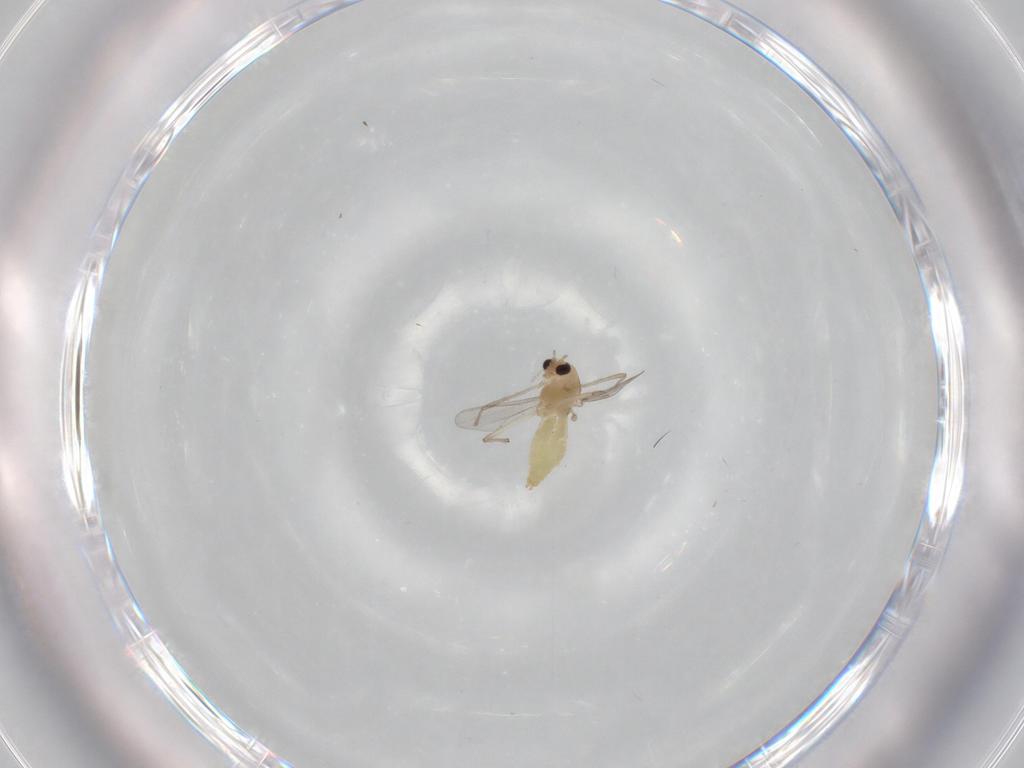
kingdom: Animalia
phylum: Arthropoda
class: Insecta
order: Diptera
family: Chironomidae
